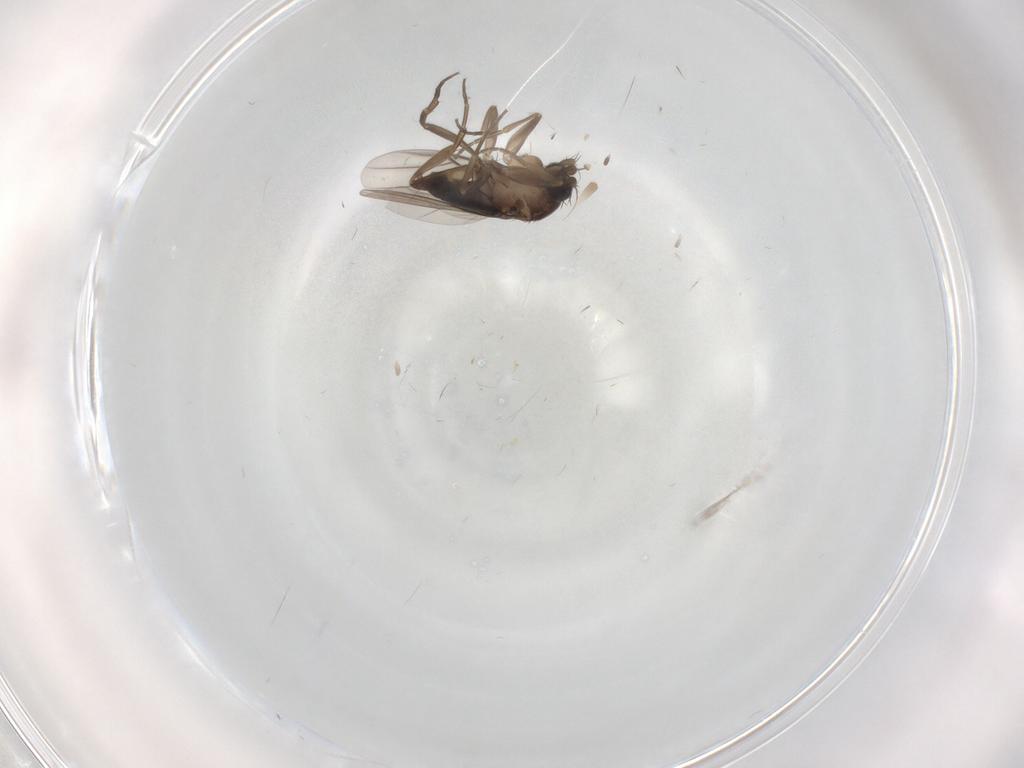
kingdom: Animalia
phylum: Arthropoda
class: Insecta
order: Diptera
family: Phoridae
